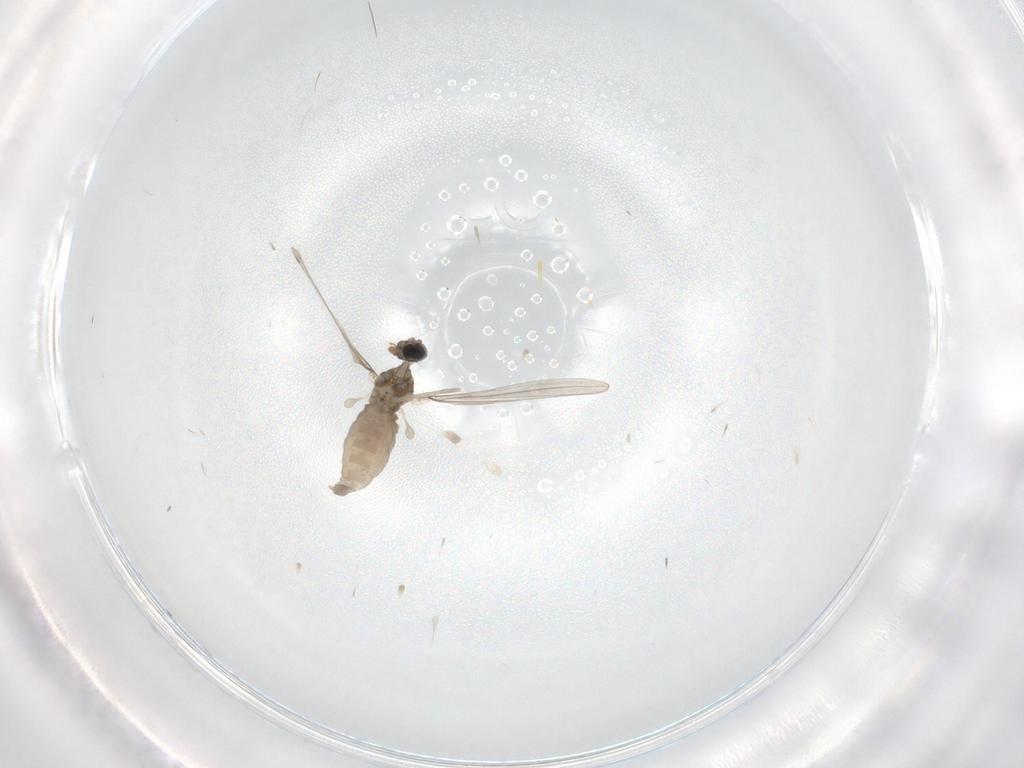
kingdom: Animalia
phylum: Arthropoda
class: Insecta
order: Diptera
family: Cecidomyiidae
